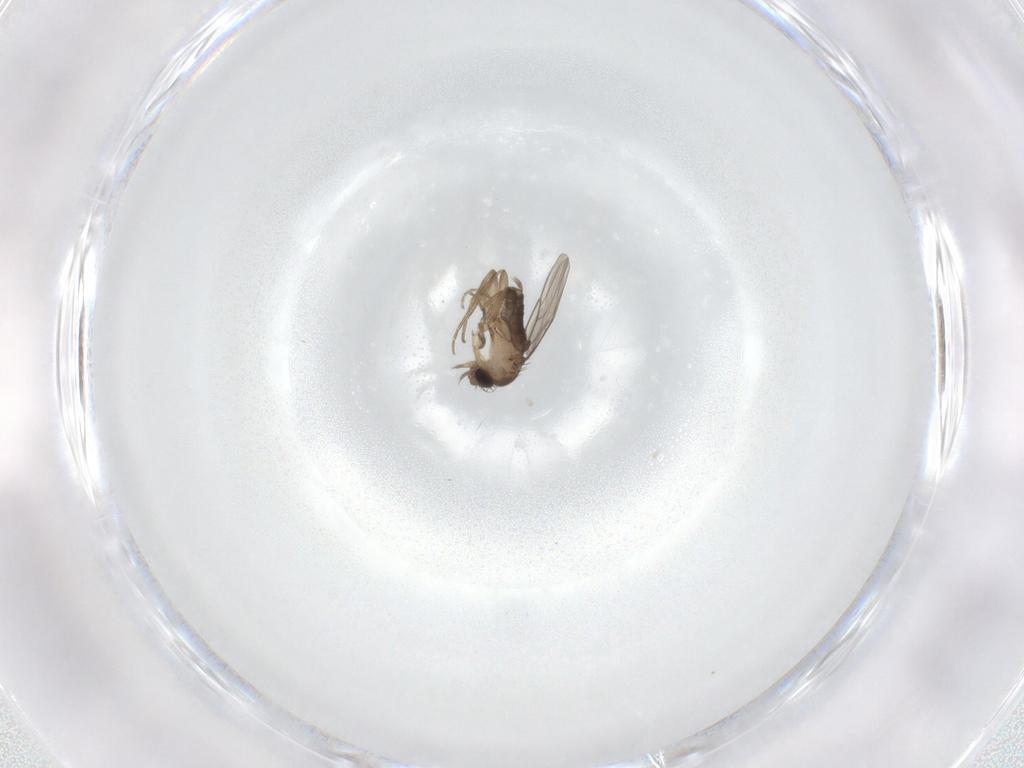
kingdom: Animalia
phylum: Arthropoda
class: Insecta
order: Diptera
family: Phoridae
